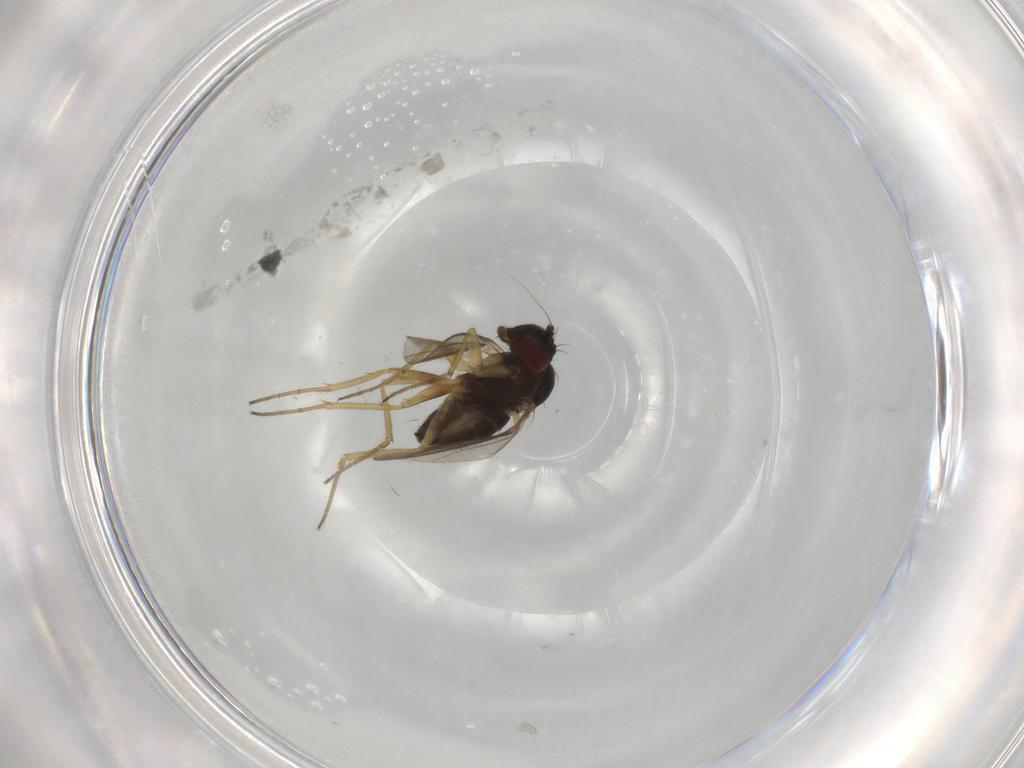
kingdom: Animalia
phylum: Arthropoda
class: Insecta
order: Diptera
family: Dolichopodidae
